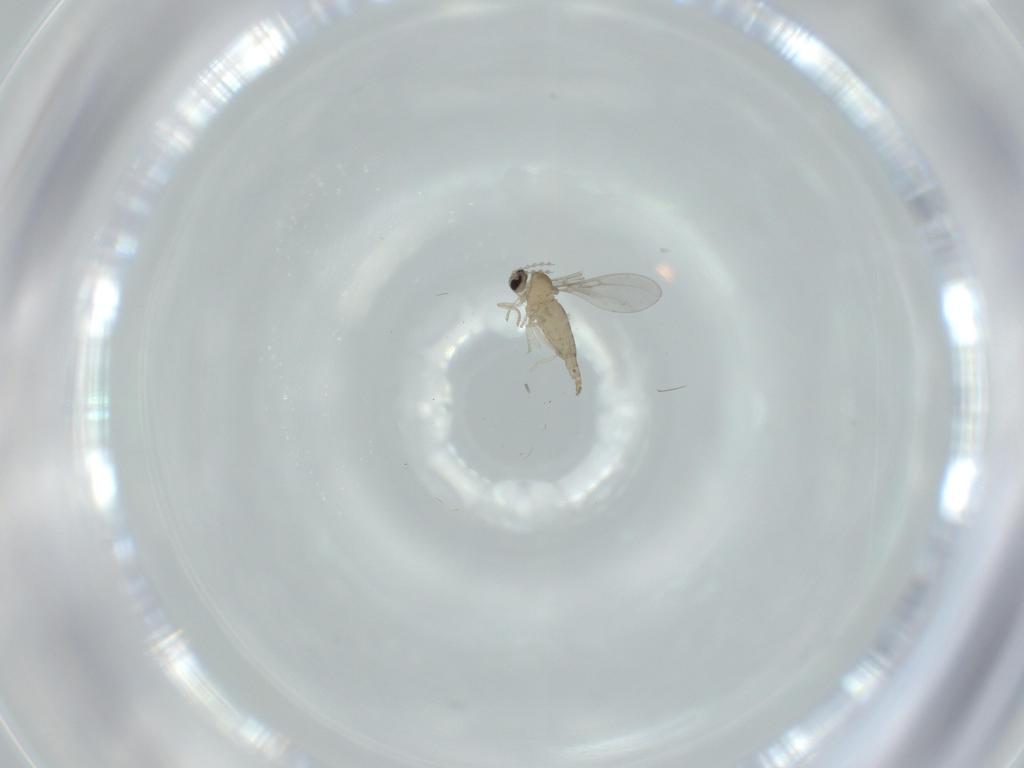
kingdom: Animalia
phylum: Arthropoda
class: Insecta
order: Diptera
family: Cecidomyiidae
